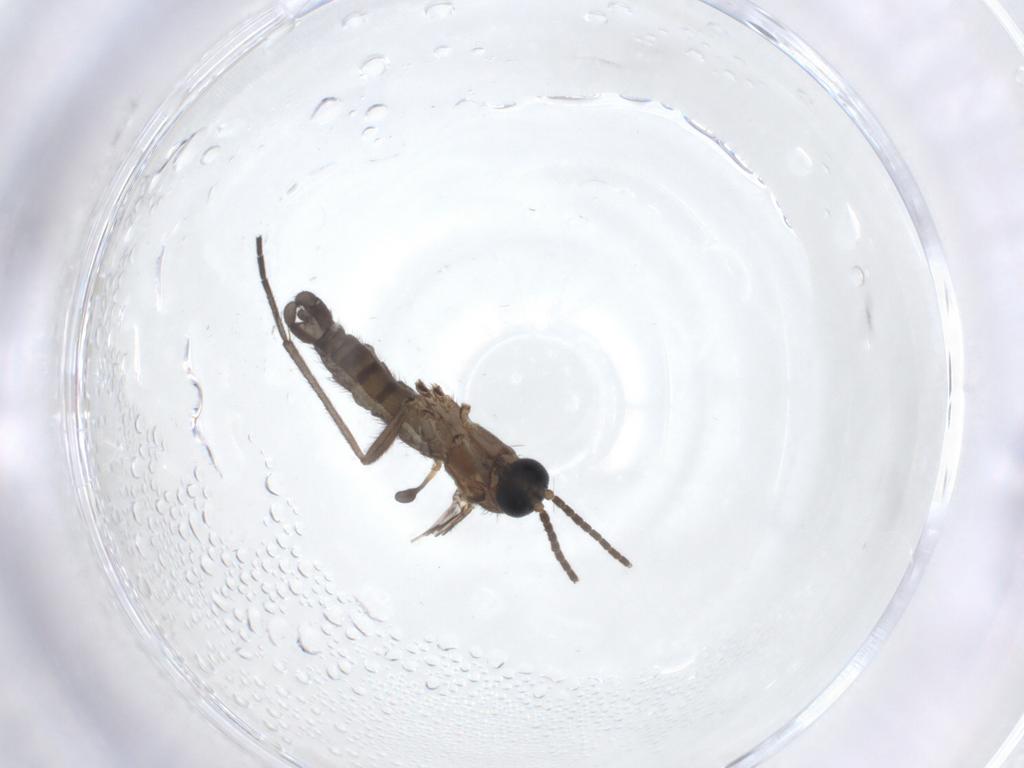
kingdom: Animalia
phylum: Arthropoda
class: Insecta
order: Diptera
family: Sciaridae
